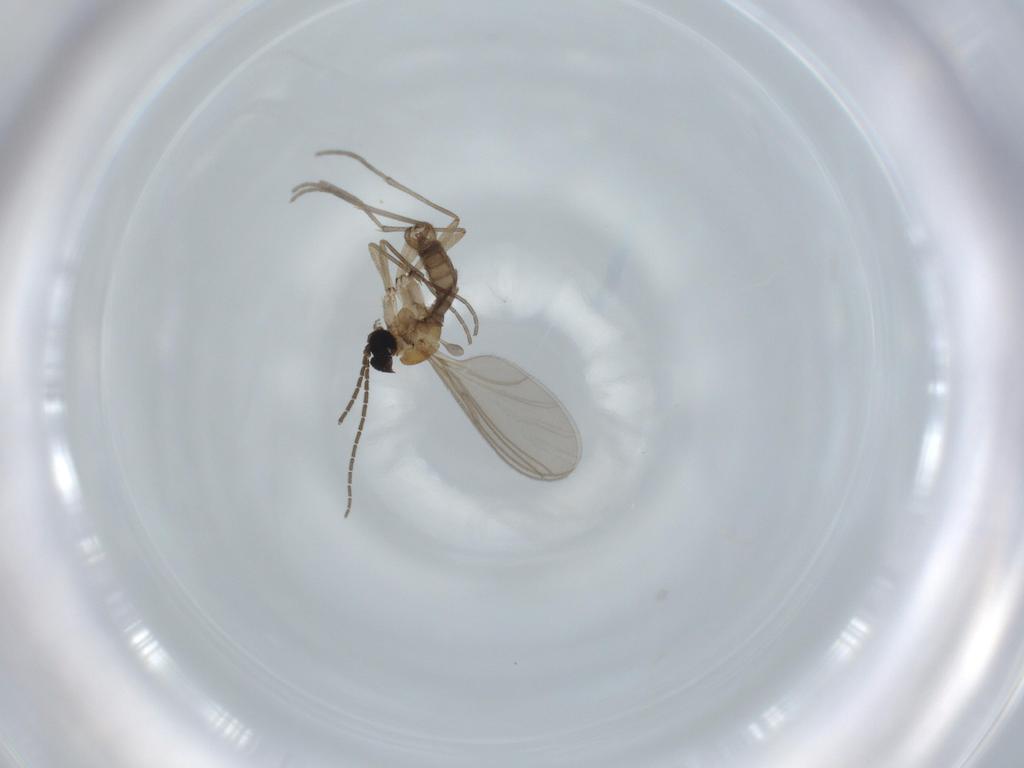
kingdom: Animalia
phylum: Arthropoda
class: Insecta
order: Diptera
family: Sciaridae
